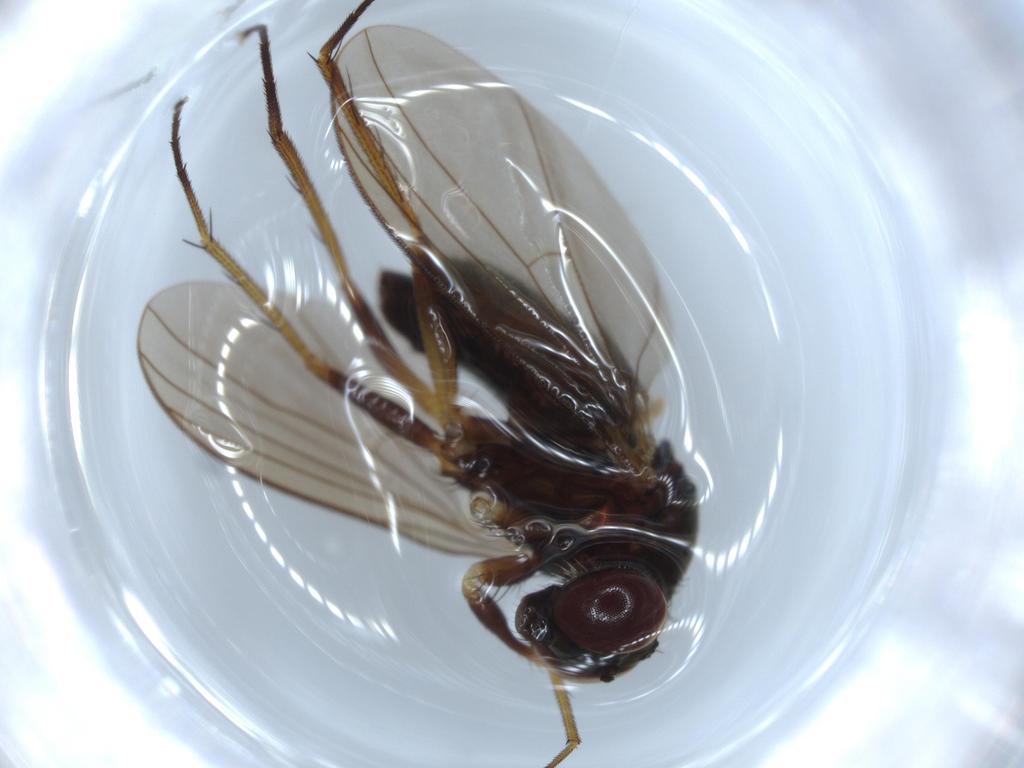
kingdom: Animalia
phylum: Arthropoda
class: Insecta
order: Diptera
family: Dolichopodidae
